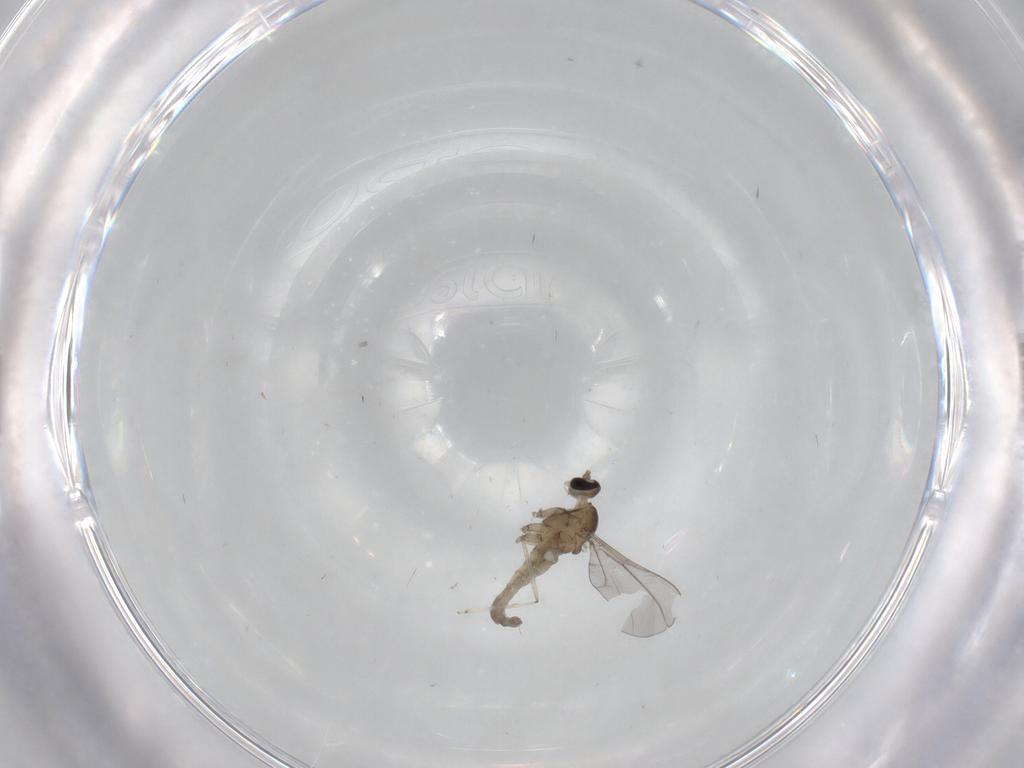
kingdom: Animalia
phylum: Arthropoda
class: Insecta
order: Diptera
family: Cecidomyiidae
